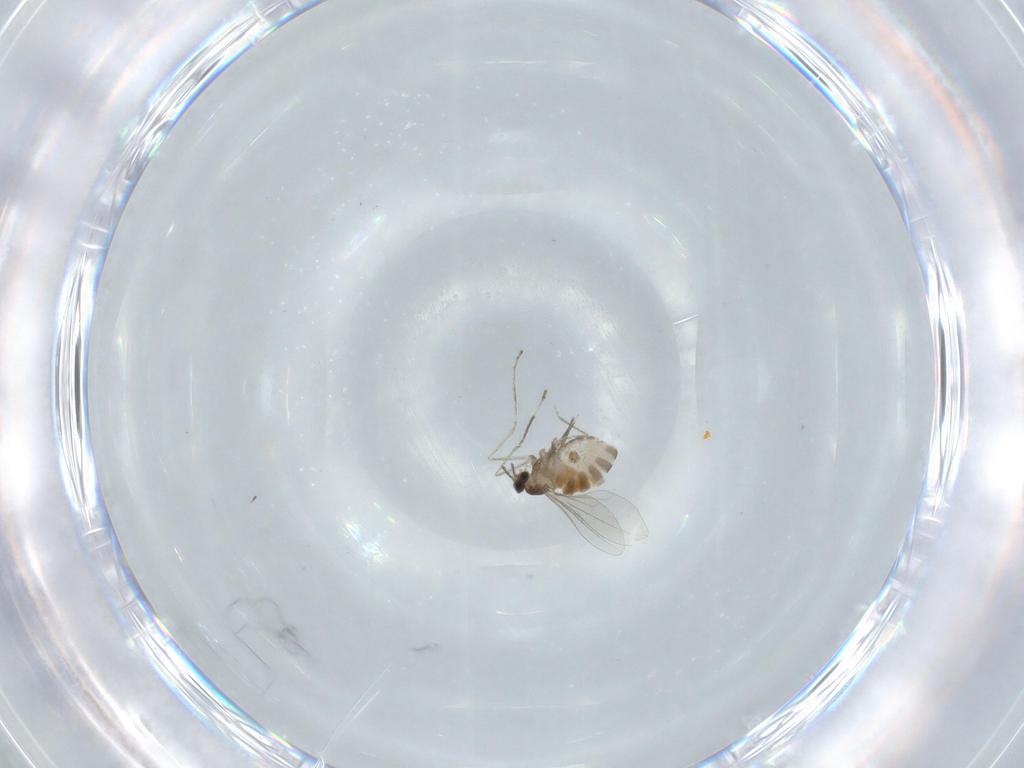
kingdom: Animalia
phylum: Arthropoda
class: Insecta
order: Diptera
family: Cecidomyiidae
